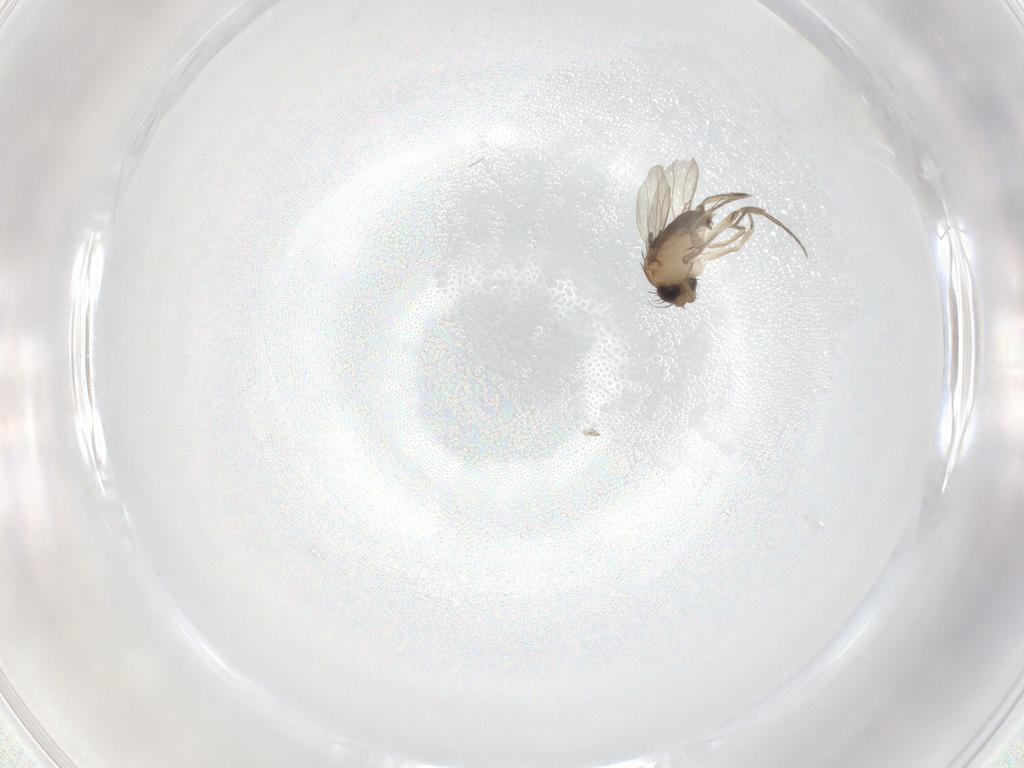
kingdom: Animalia
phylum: Arthropoda
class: Insecta
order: Diptera
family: Phoridae
